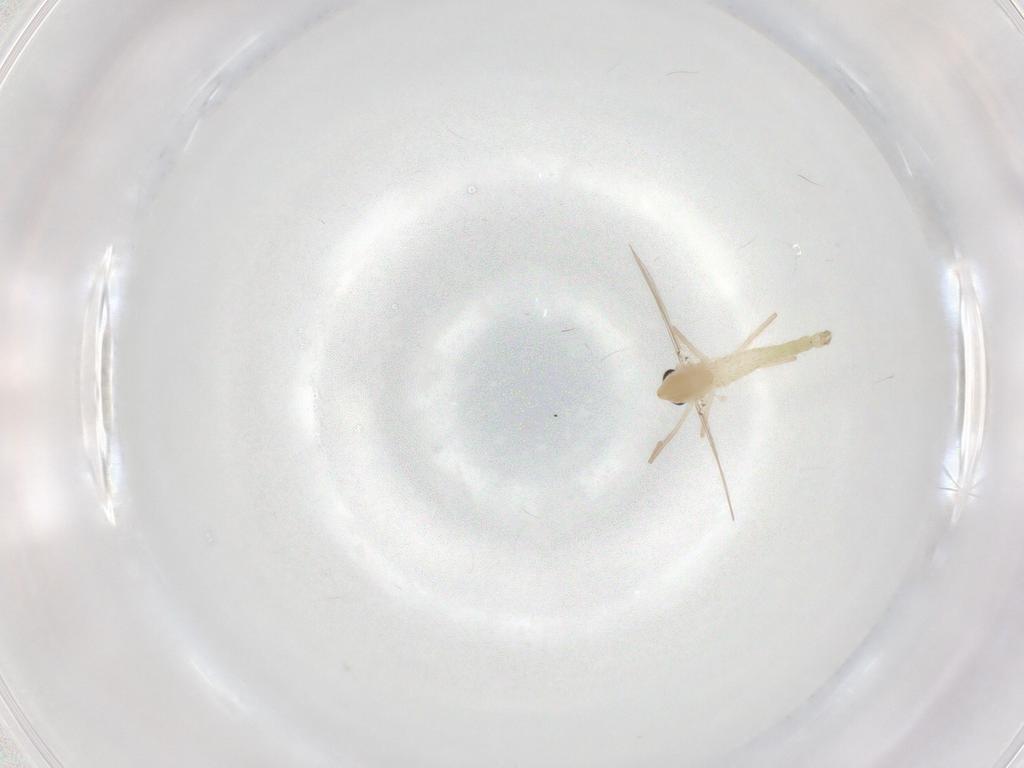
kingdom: Animalia
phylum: Arthropoda
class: Insecta
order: Diptera
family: Chironomidae
